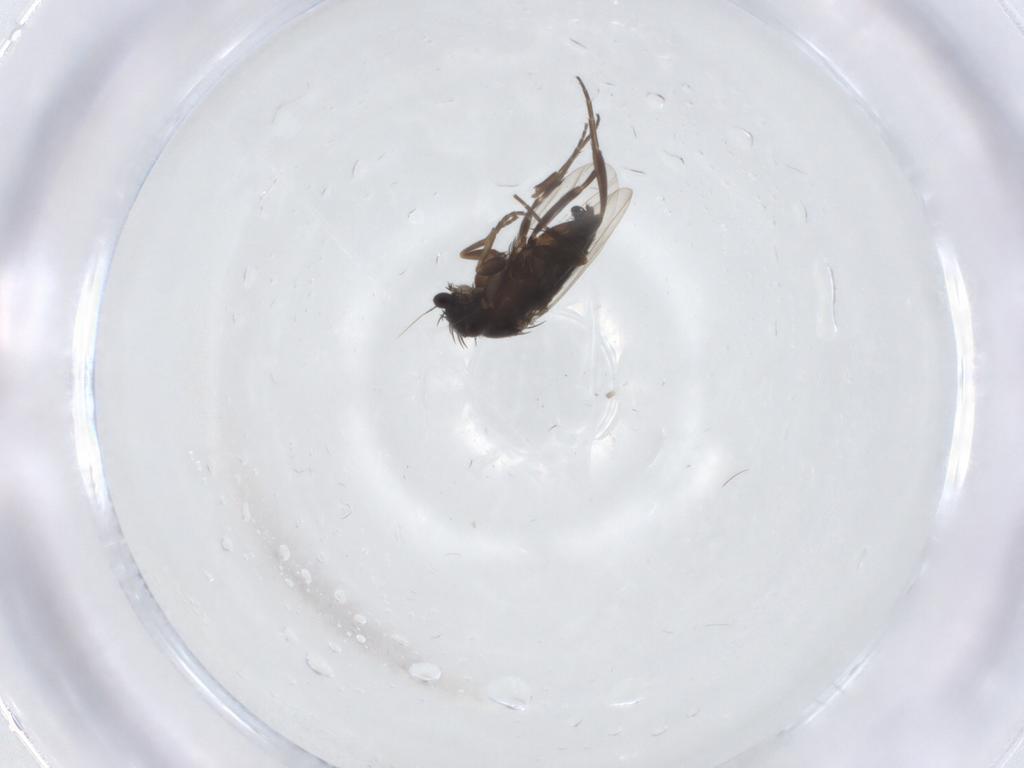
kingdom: Animalia
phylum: Arthropoda
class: Insecta
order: Diptera
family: Phoridae
